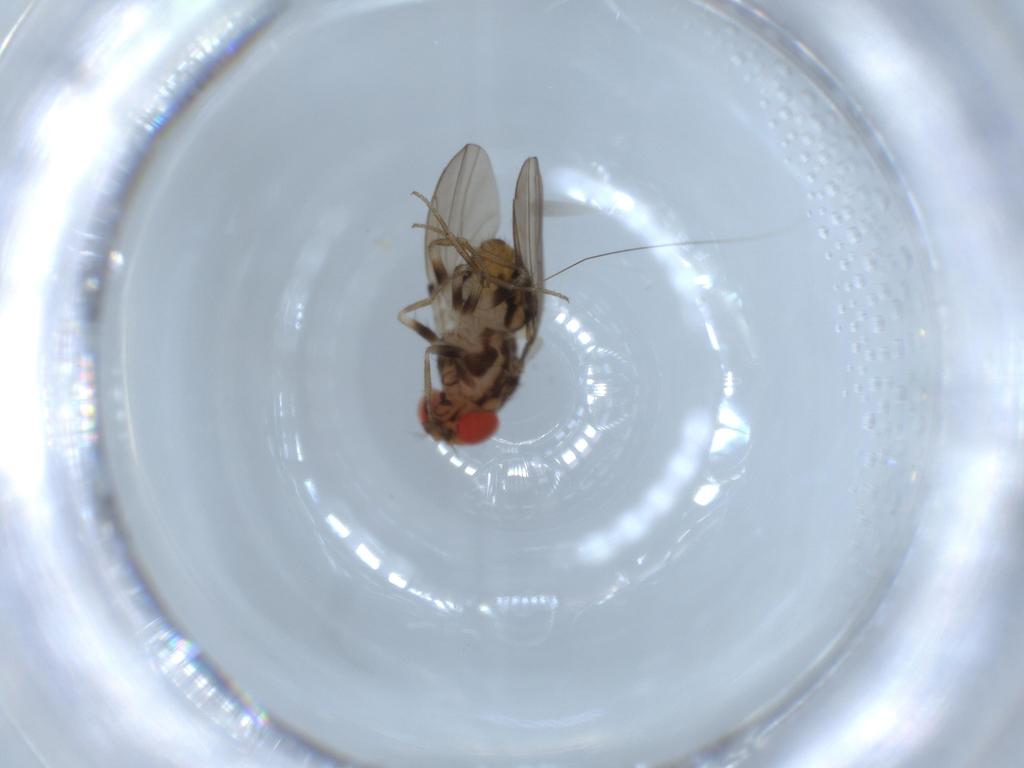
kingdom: Animalia
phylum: Arthropoda
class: Insecta
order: Diptera
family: Drosophilidae
